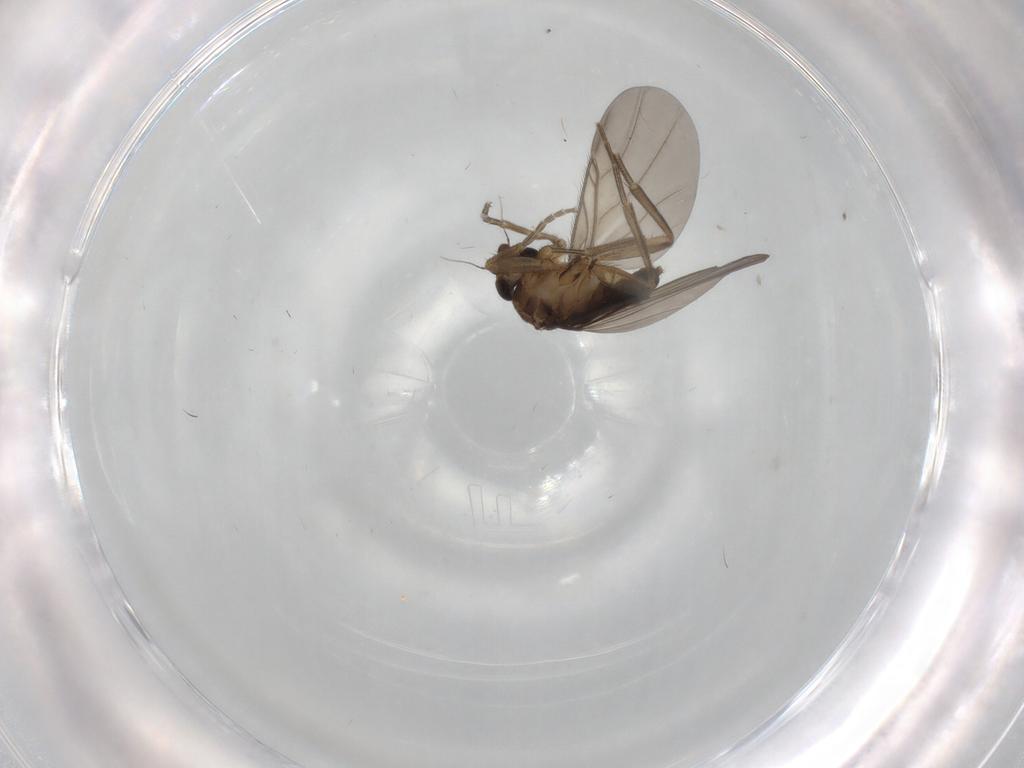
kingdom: Animalia
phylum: Arthropoda
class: Insecta
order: Diptera
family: Phoridae
